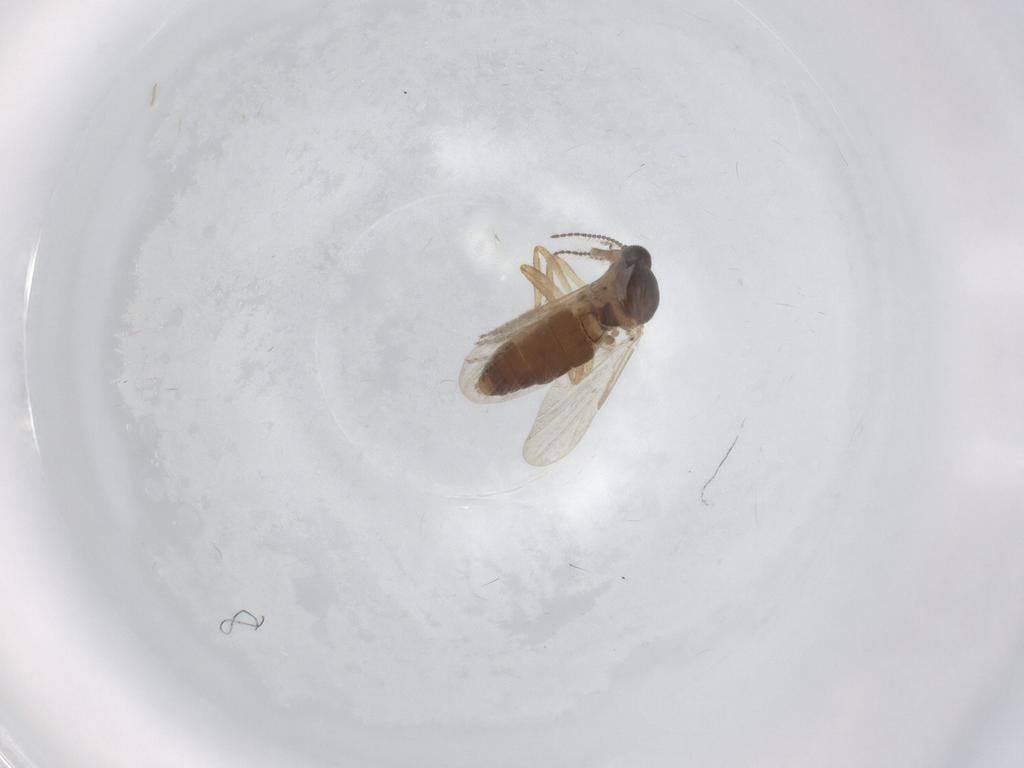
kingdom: Animalia
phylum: Arthropoda
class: Insecta
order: Diptera
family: Ceratopogonidae
